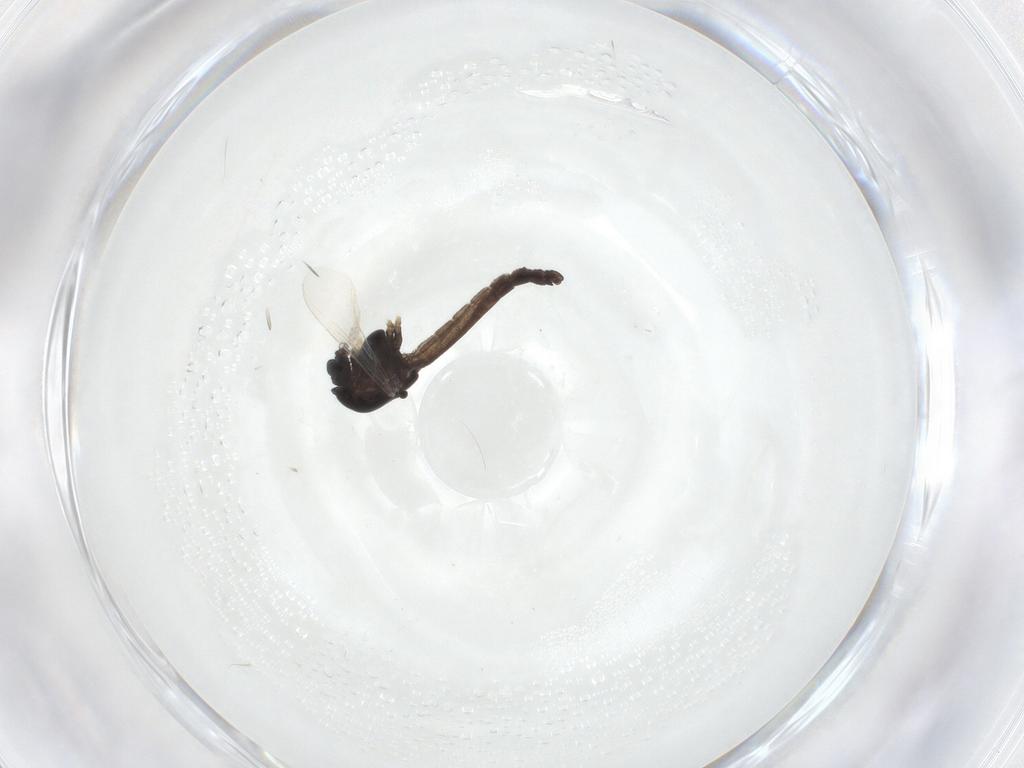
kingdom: Animalia
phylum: Arthropoda
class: Insecta
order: Diptera
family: Chironomidae
